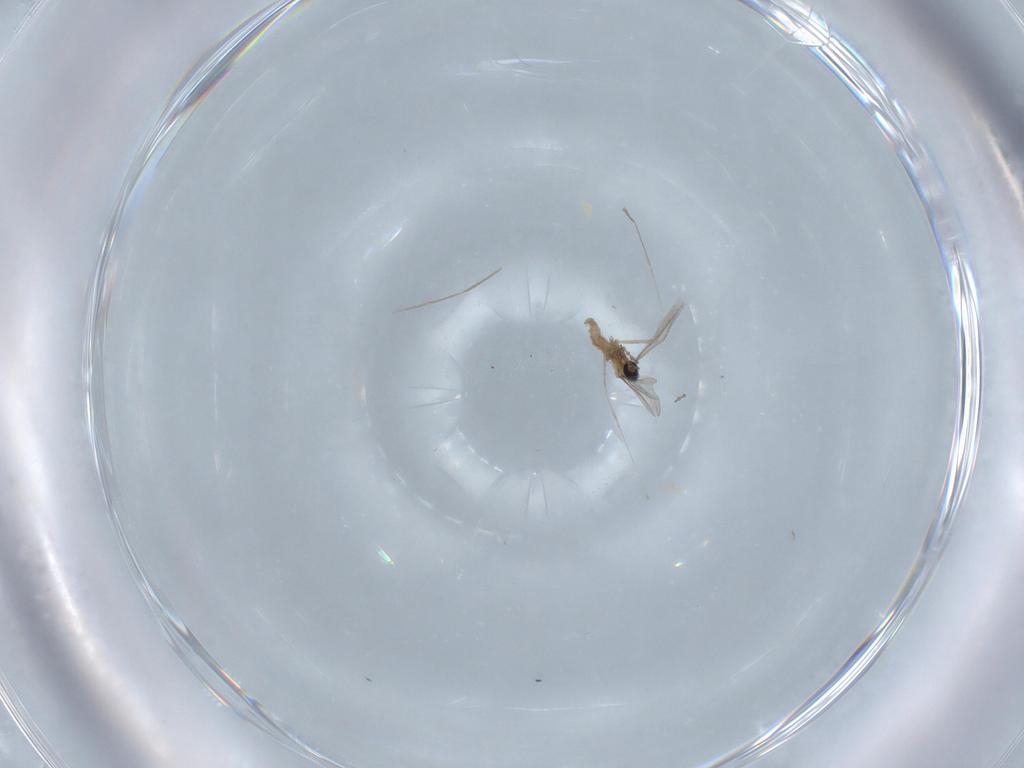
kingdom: Animalia
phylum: Arthropoda
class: Insecta
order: Diptera
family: Chironomidae
